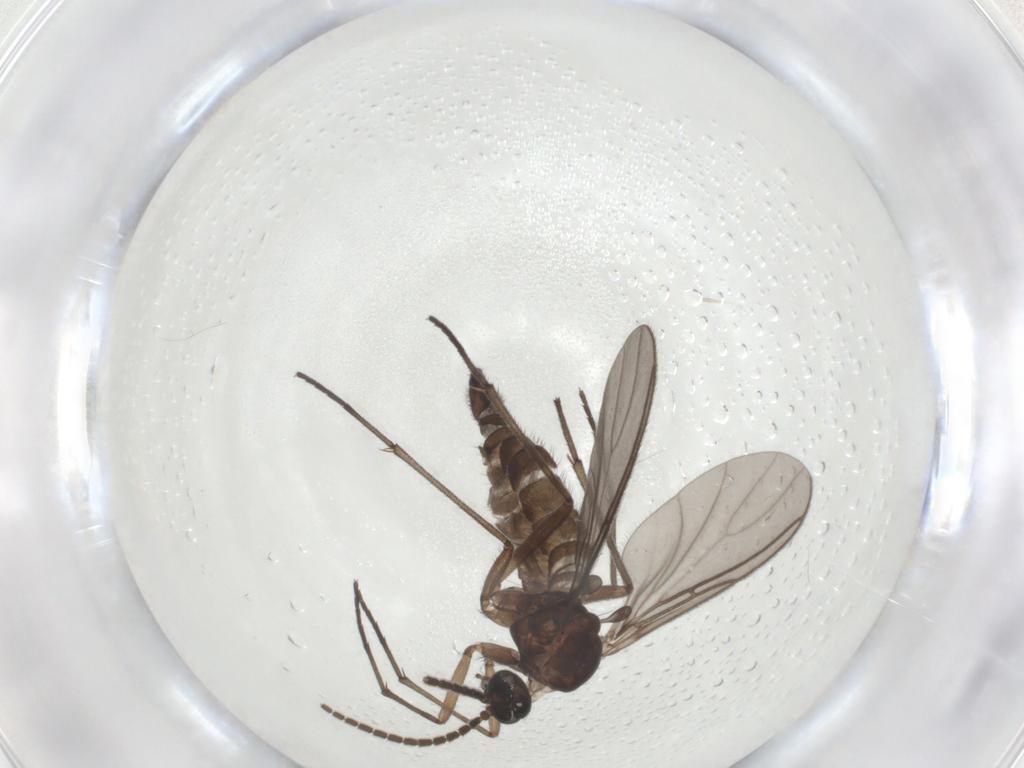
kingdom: Animalia
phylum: Arthropoda
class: Insecta
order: Diptera
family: Sciaridae
